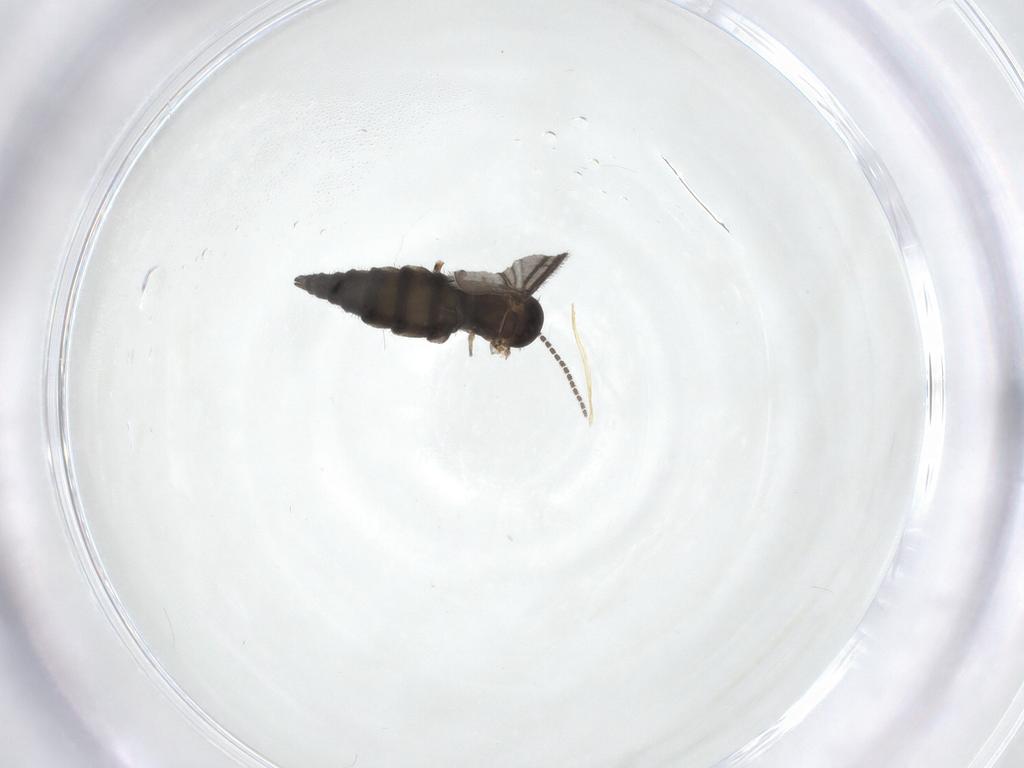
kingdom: Animalia
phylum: Arthropoda
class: Insecta
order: Diptera
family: Sciaridae
